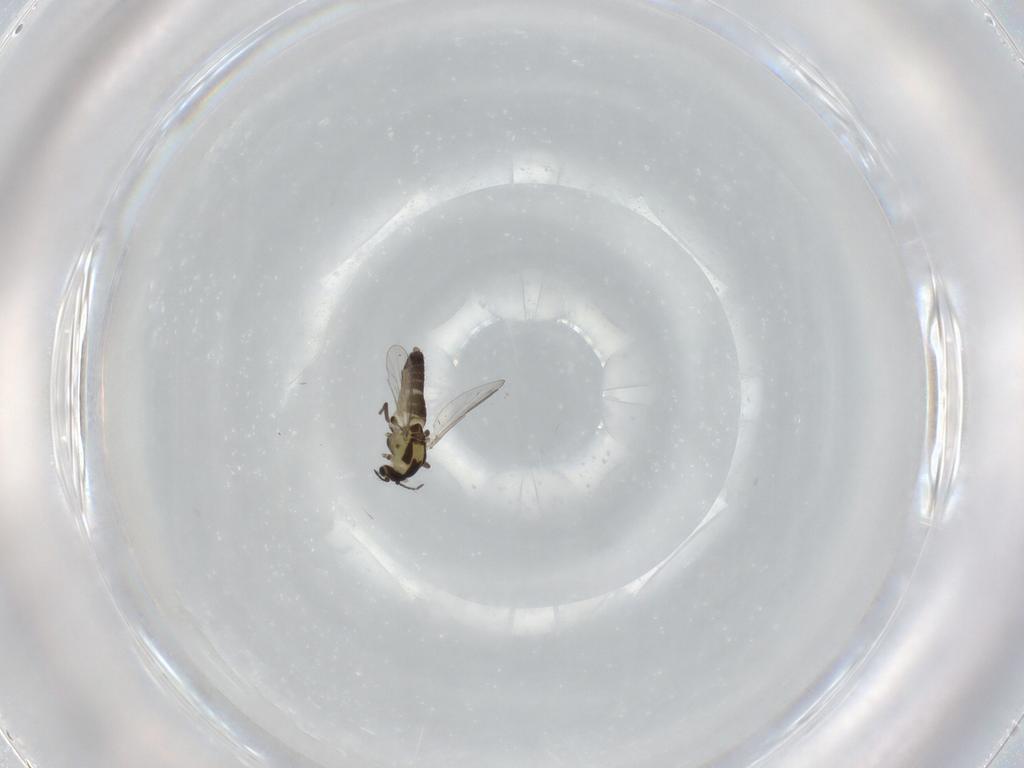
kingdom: Animalia
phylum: Arthropoda
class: Insecta
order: Diptera
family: Chironomidae
